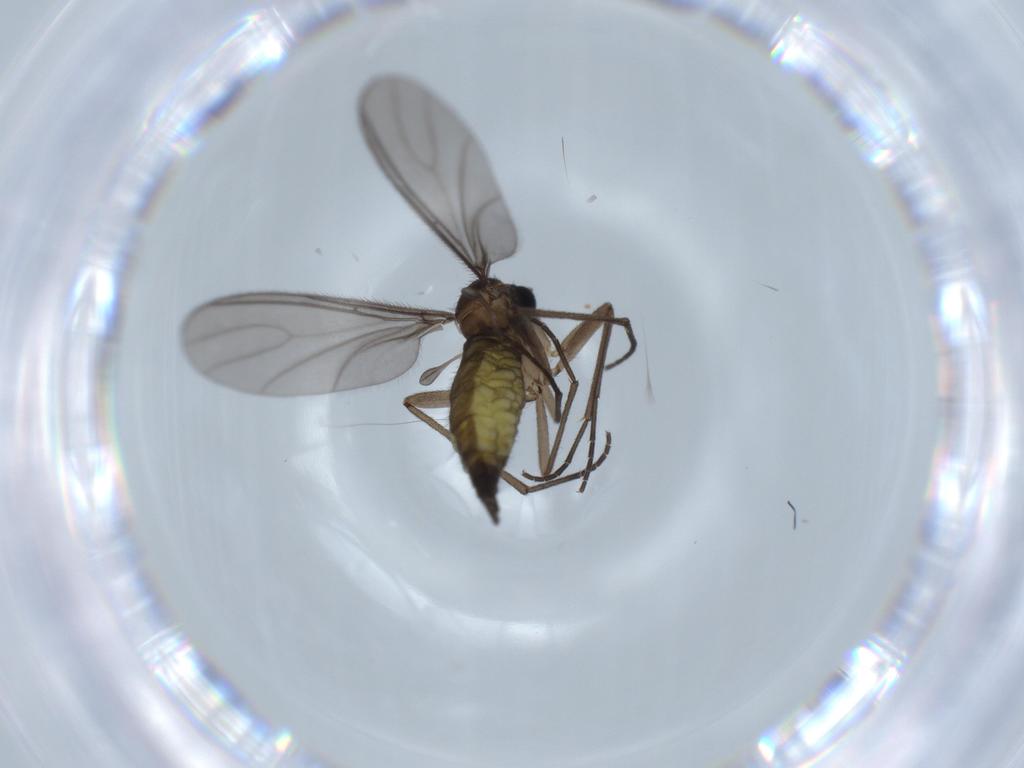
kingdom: Animalia
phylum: Arthropoda
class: Insecta
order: Diptera
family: Sciaridae
